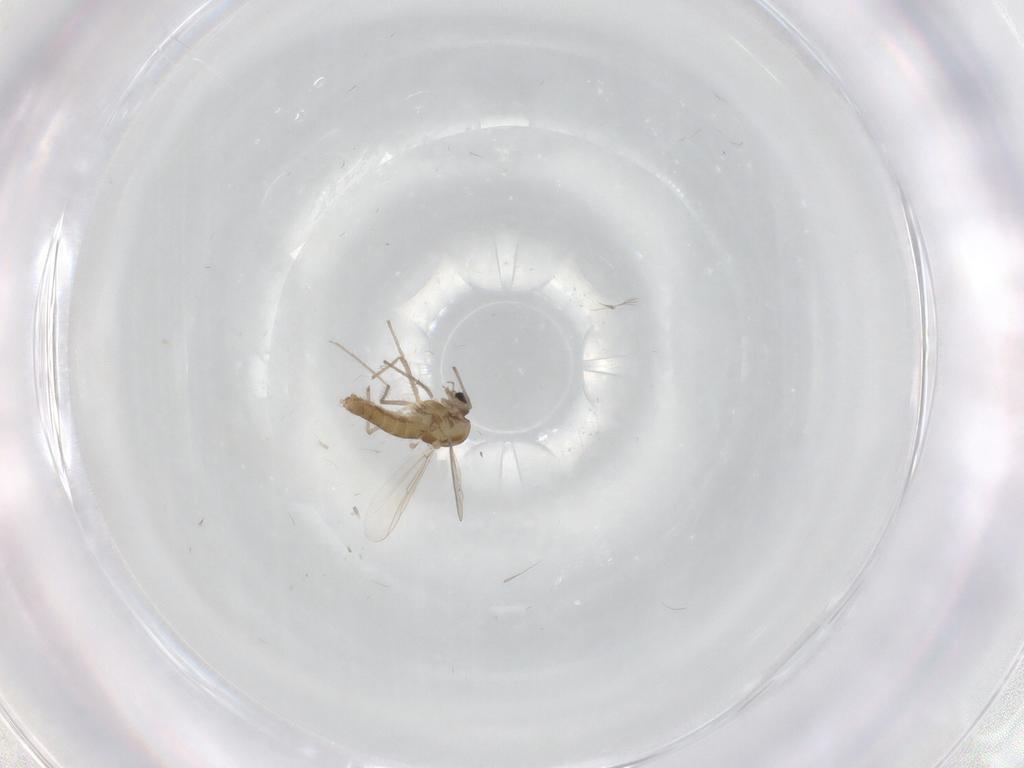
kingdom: Animalia
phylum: Arthropoda
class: Insecta
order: Diptera
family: Chironomidae
